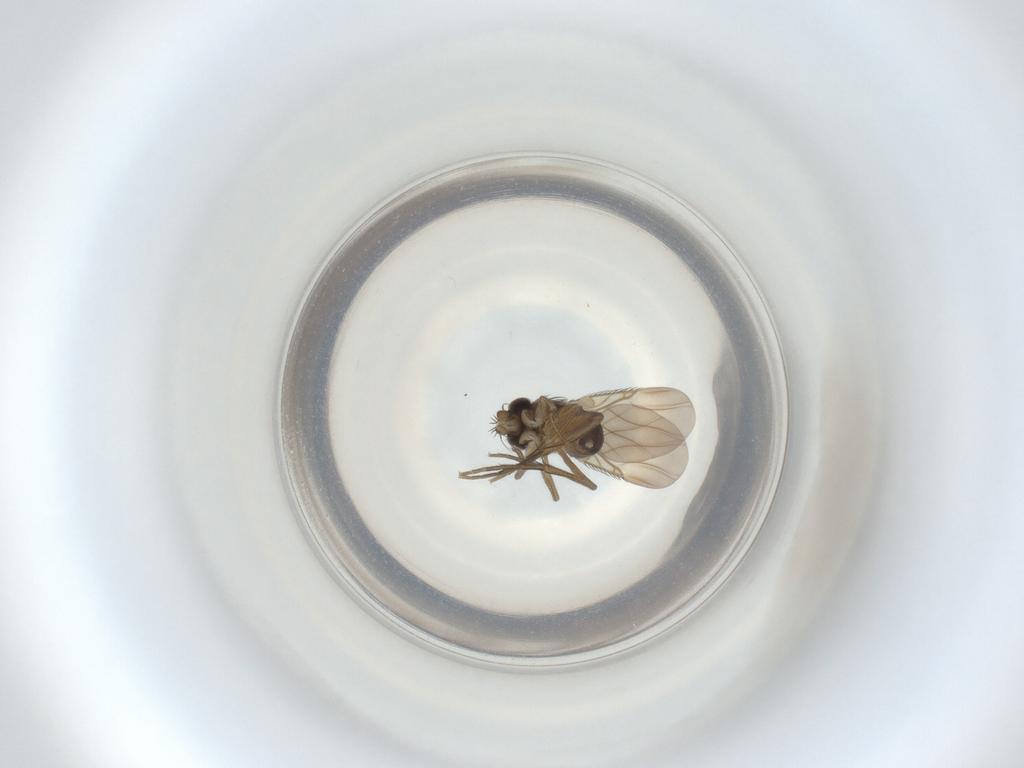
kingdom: Animalia
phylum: Arthropoda
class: Insecta
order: Diptera
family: Phoridae
